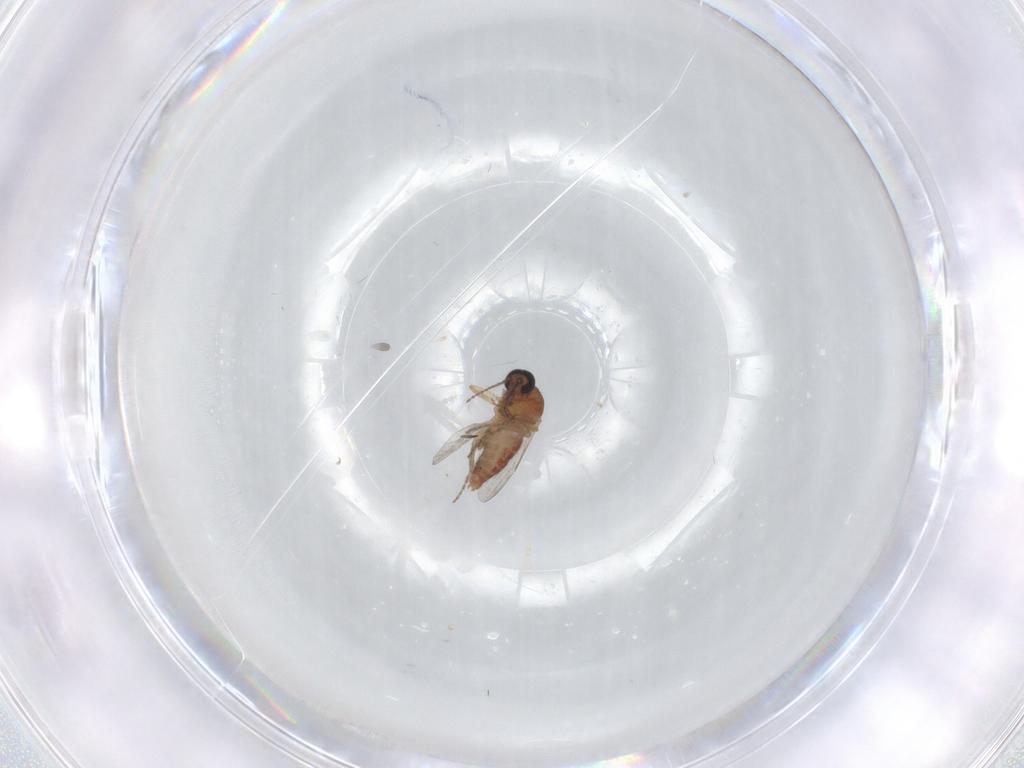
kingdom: Animalia
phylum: Arthropoda
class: Insecta
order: Diptera
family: Ceratopogonidae
